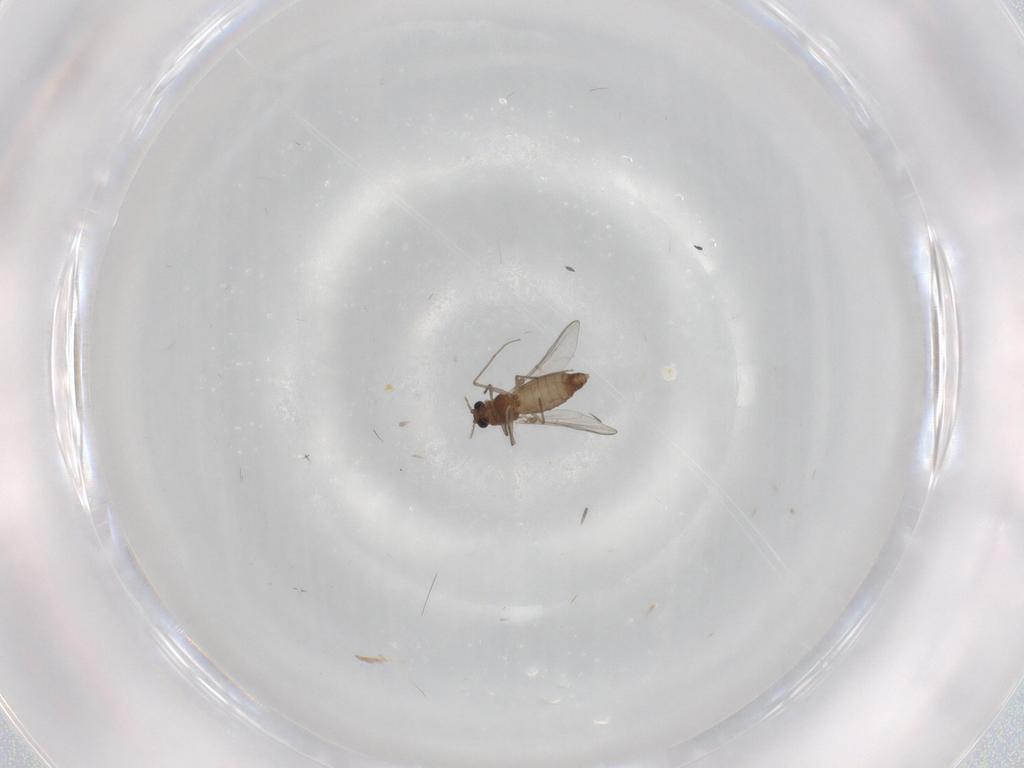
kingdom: Animalia
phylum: Arthropoda
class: Insecta
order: Diptera
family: Chironomidae
